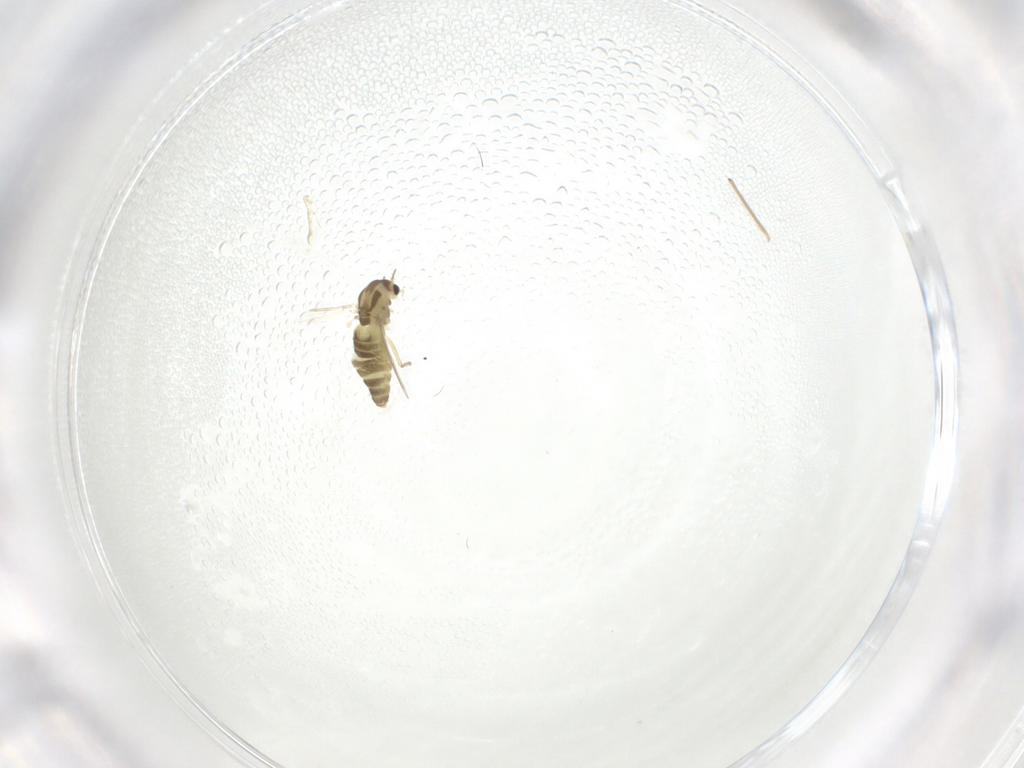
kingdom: Animalia
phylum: Arthropoda
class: Insecta
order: Diptera
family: Chironomidae
